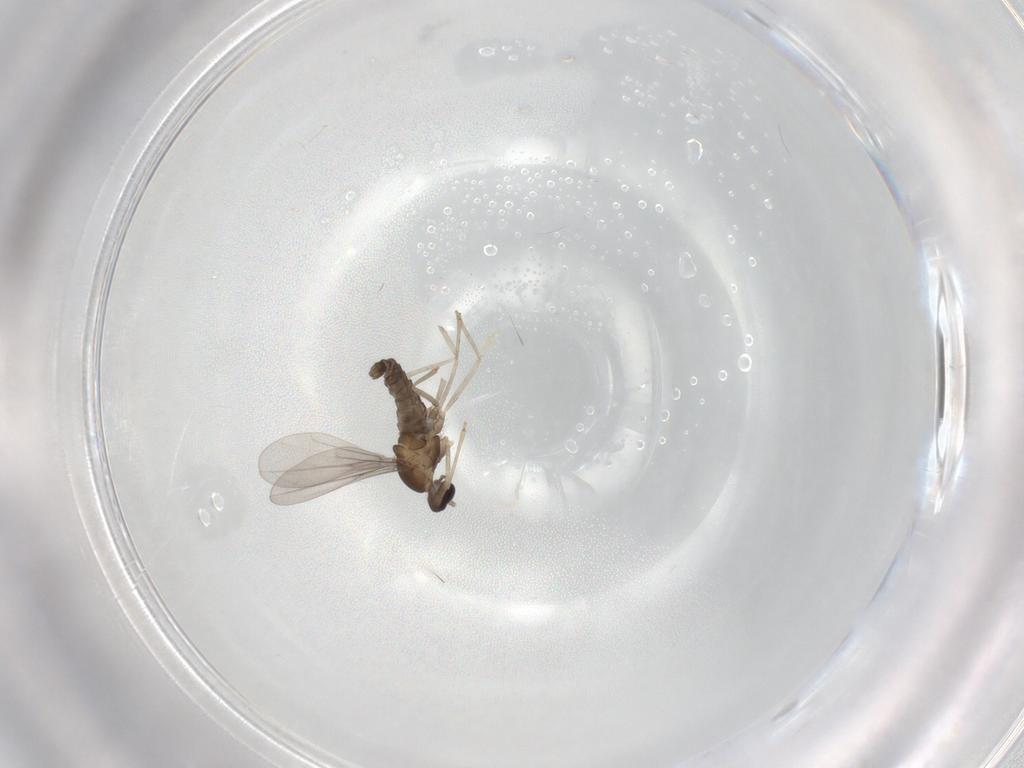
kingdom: Animalia
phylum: Arthropoda
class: Insecta
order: Diptera
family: Cecidomyiidae
